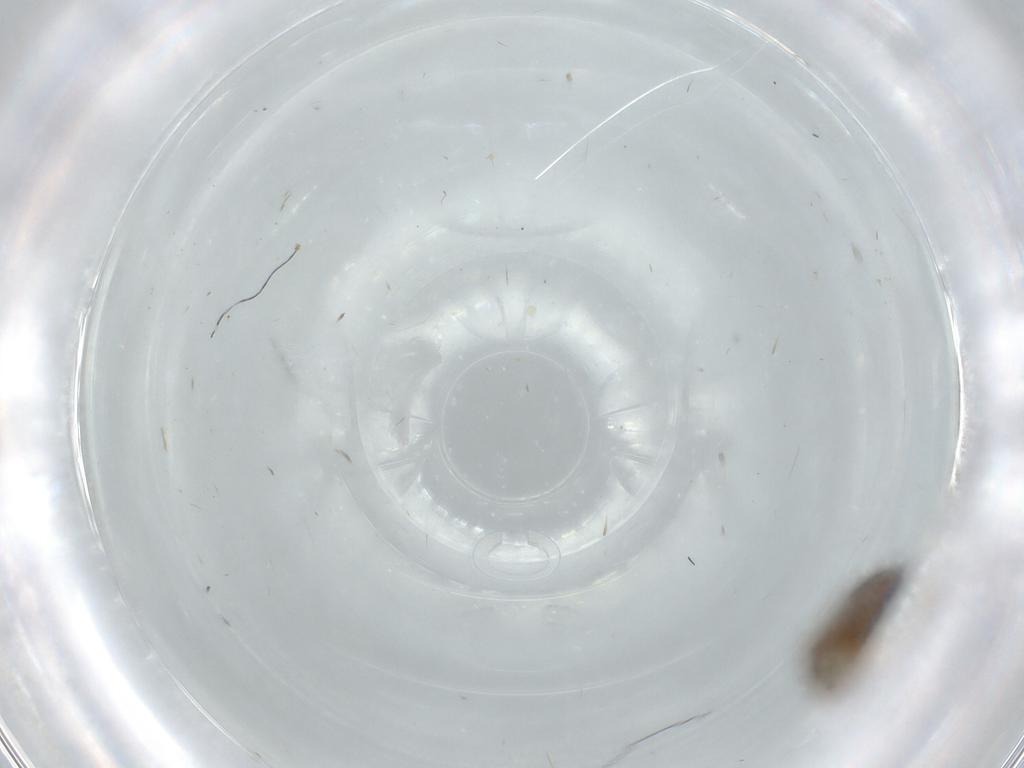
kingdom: Animalia
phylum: Arthropoda
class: Insecta
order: Lepidoptera
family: Gracillariidae
